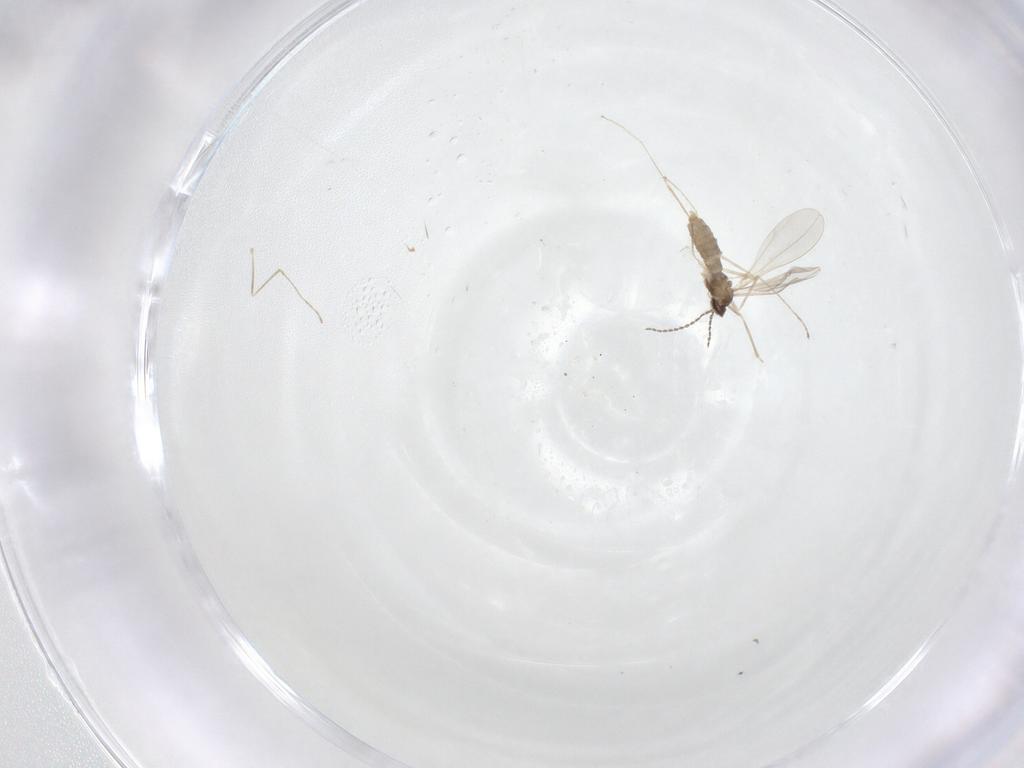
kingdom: Animalia
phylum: Arthropoda
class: Insecta
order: Diptera
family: Cecidomyiidae
